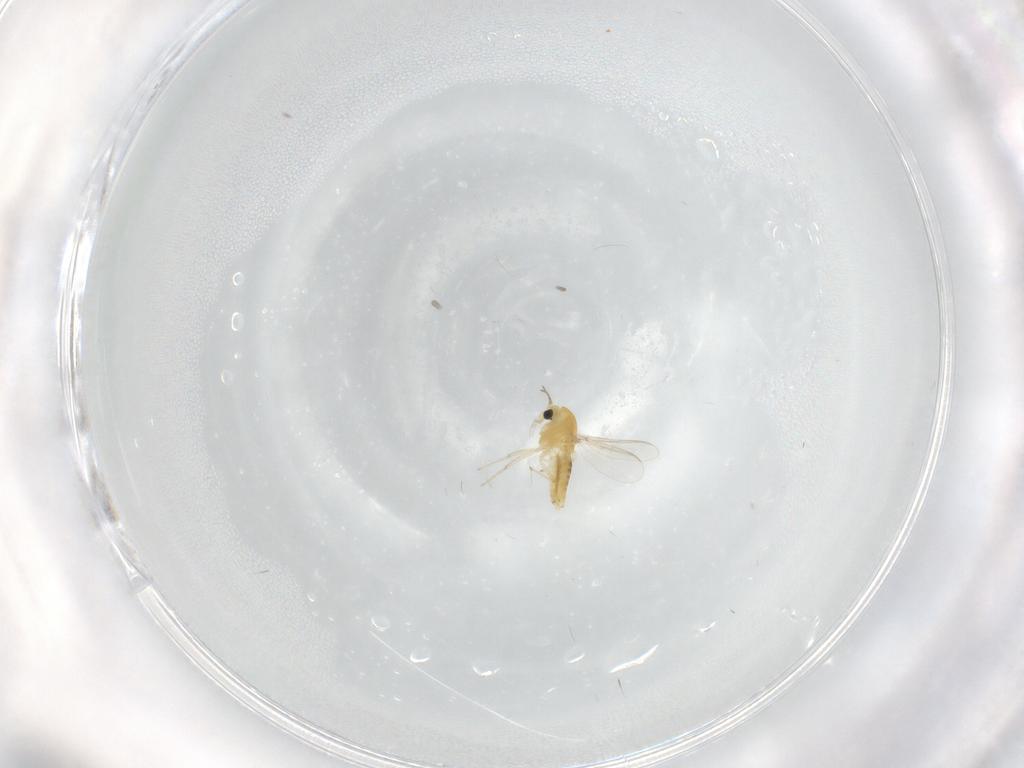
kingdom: Animalia
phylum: Arthropoda
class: Insecta
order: Diptera
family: Chironomidae
